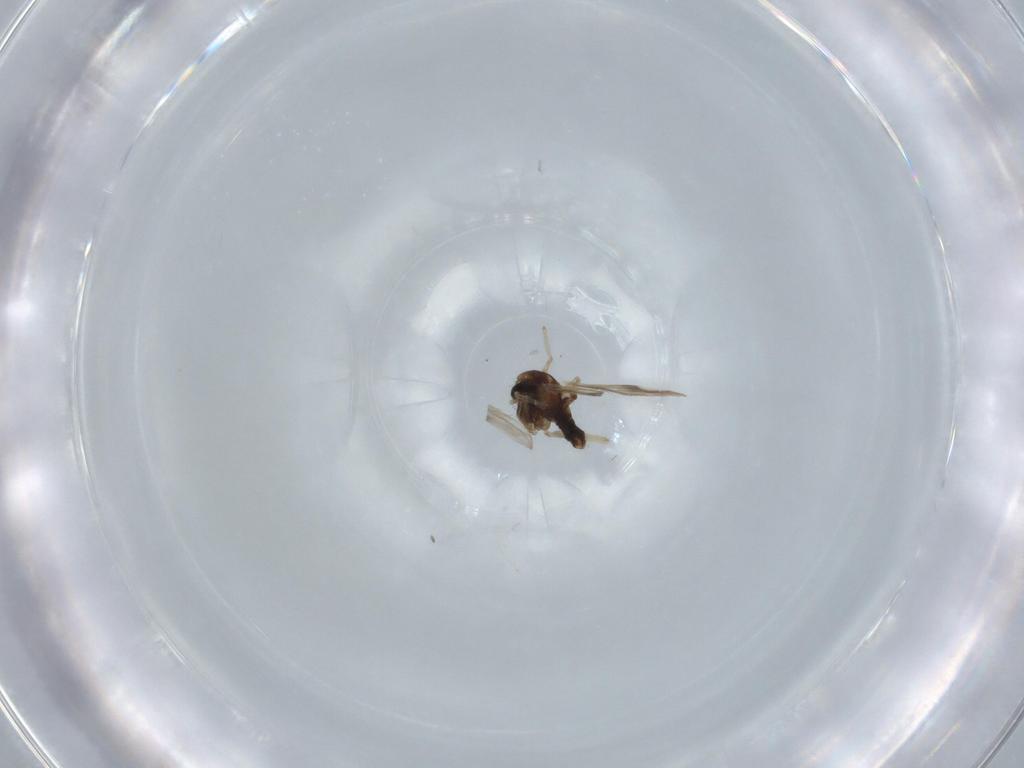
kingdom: Animalia
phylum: Arthropoda
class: Insecta
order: Diptera
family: Chironomidae
